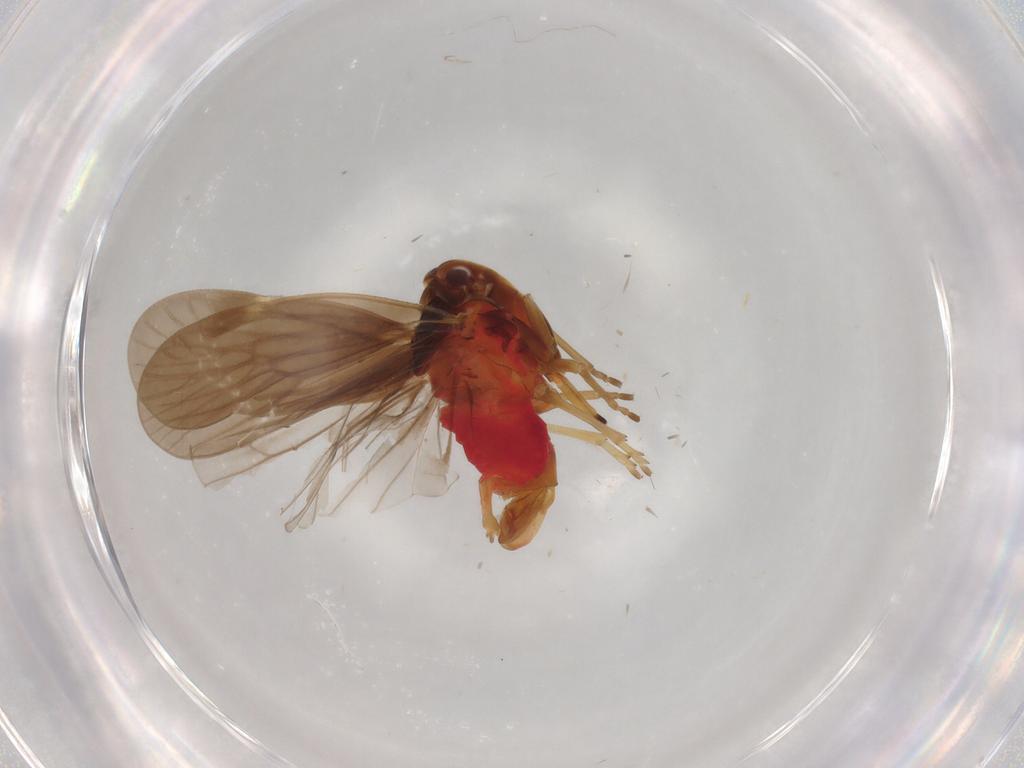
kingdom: Animalia
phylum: Arthropoda
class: Insecta
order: Hemiptera
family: Derbidae
